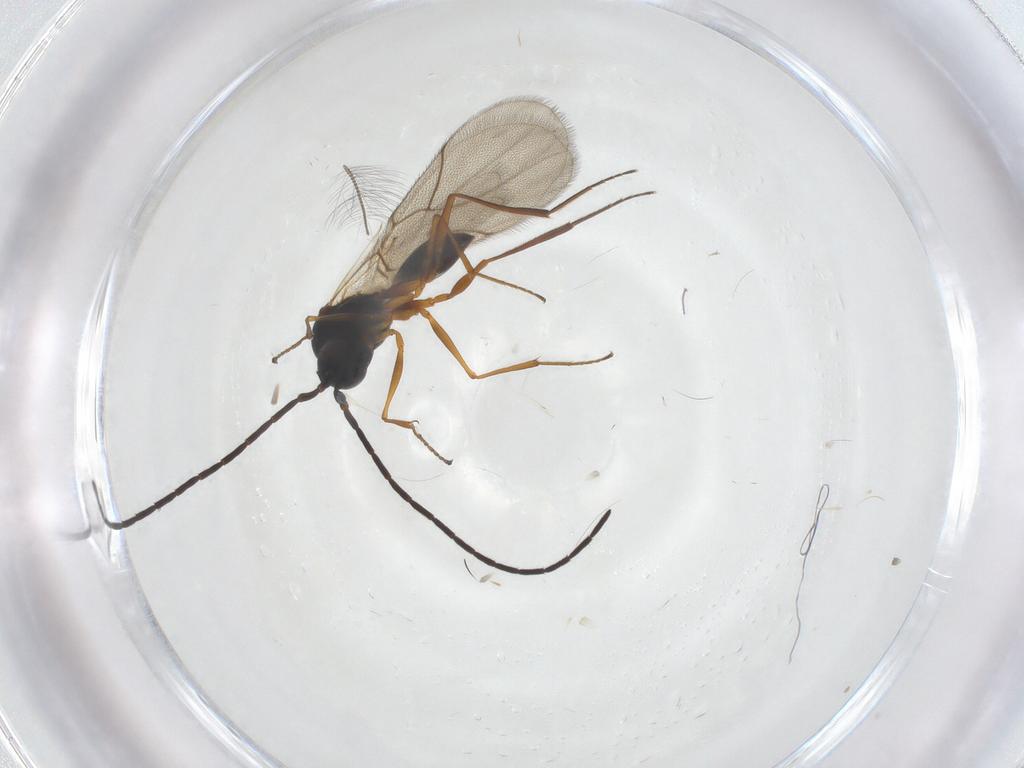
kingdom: Animalia
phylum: Arthropoda
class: Insecta
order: Hymenoptera
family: Figitidae
